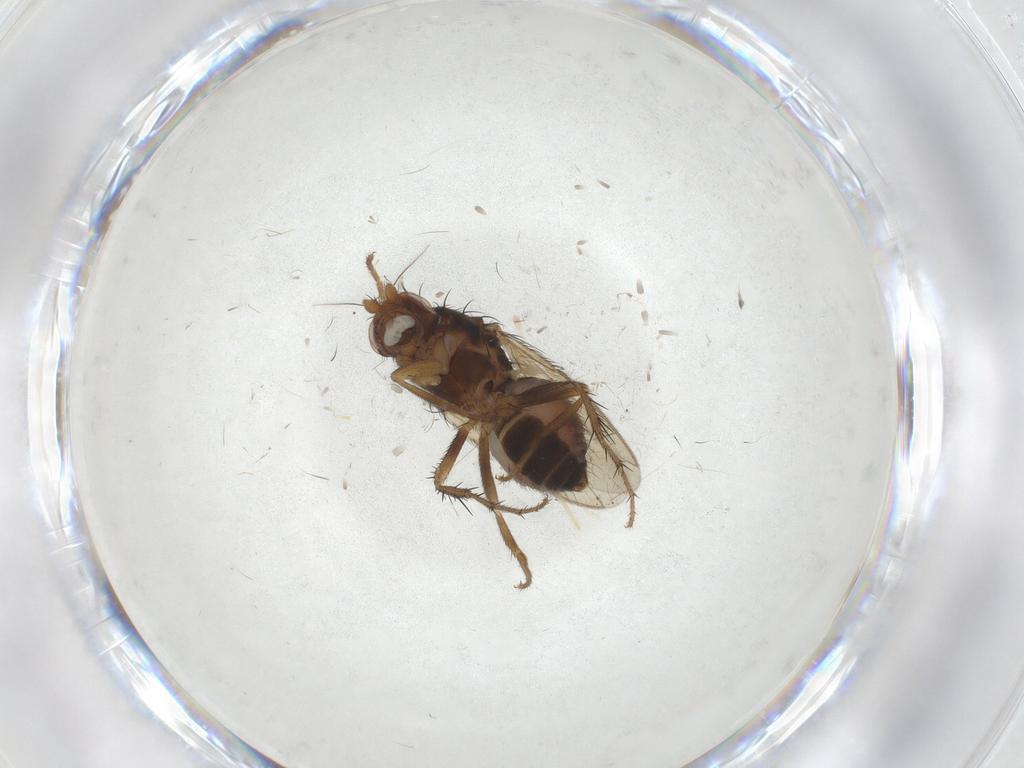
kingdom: Animalia
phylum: Arthropoda
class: Insecta
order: Diptera
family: Sphaeroceridae
